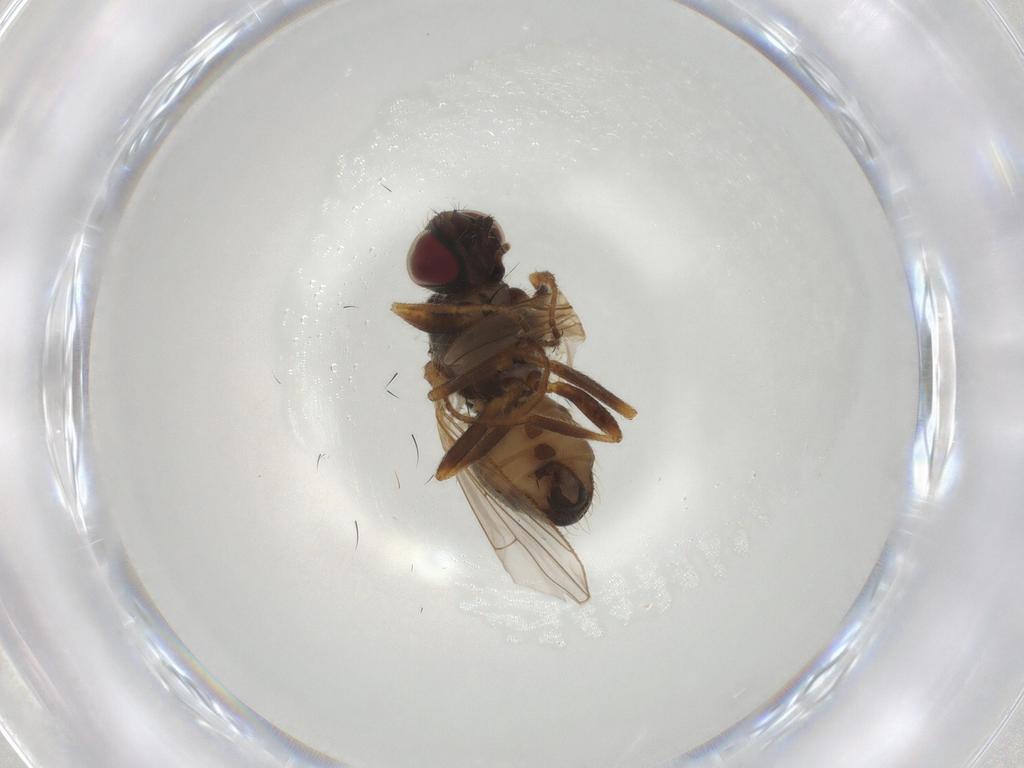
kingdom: Animalia
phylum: Arthropoda
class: Insecta
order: Diptera
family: Muscidae
